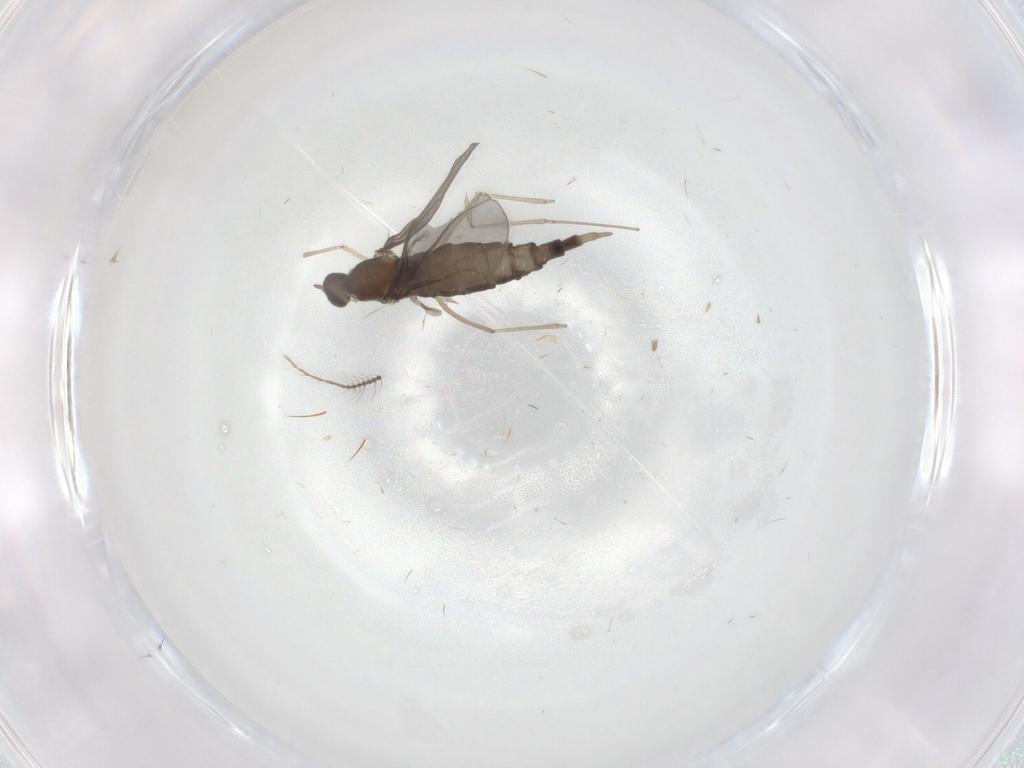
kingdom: Animalia
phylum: Arthropoda
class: Insecta
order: Diptera
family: Ceratopogonidae
